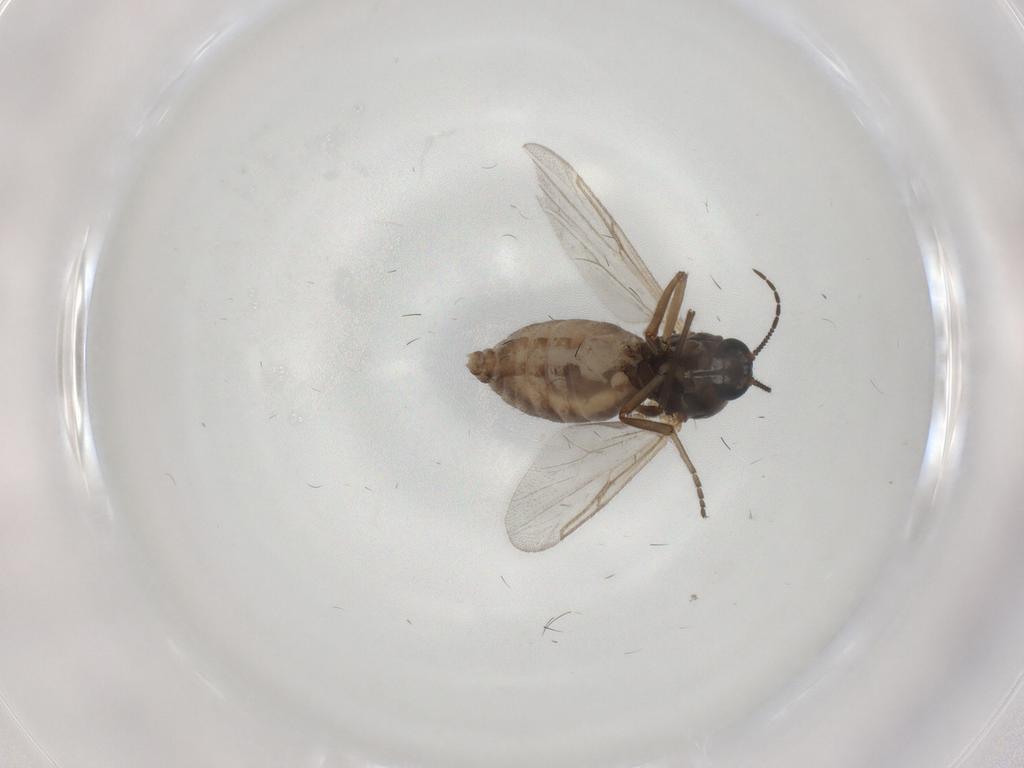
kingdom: Animalia
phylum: Arthropoda
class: Insecta
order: Diptera
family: Ceratopogonidae
